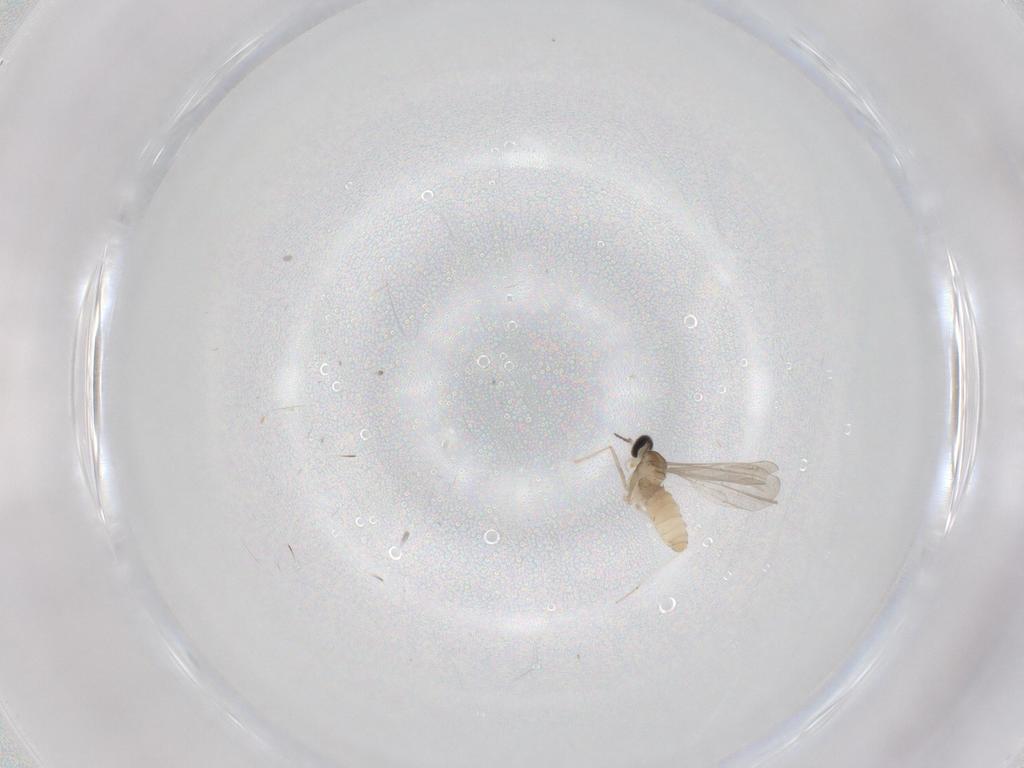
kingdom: Animalia
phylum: Arthropoda
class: Insecta
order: Diptera
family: Cecidomyiidae
